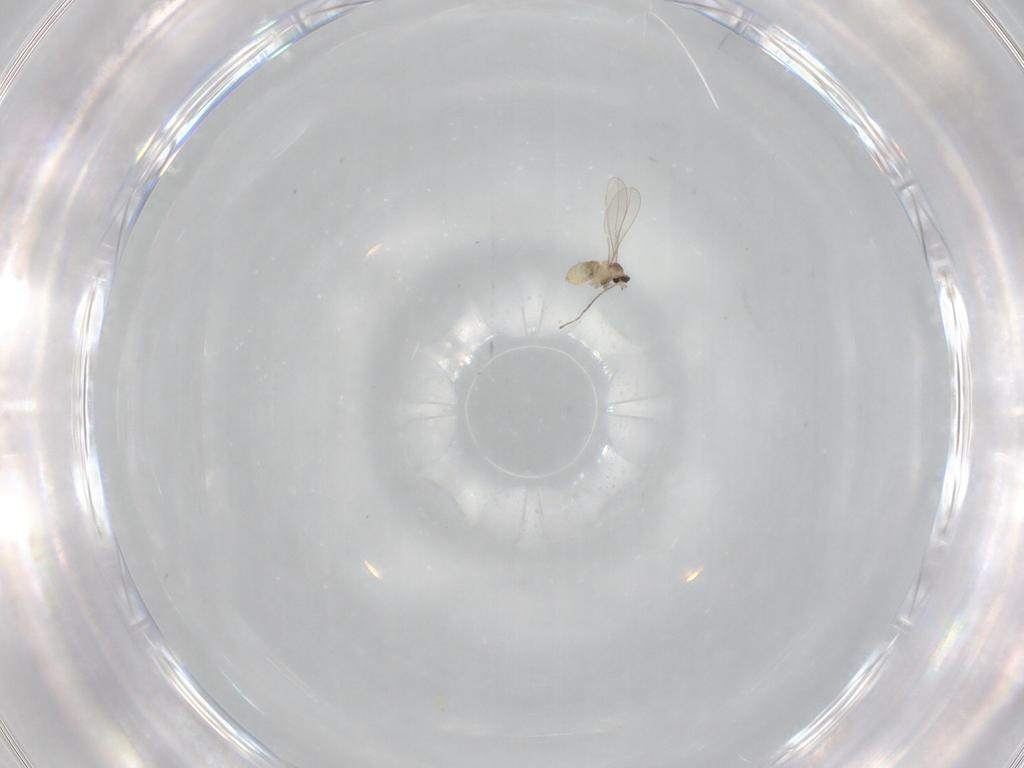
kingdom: Animalia
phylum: Arthropoda
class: Insecta
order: Diptera
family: Cecidomyiidae
